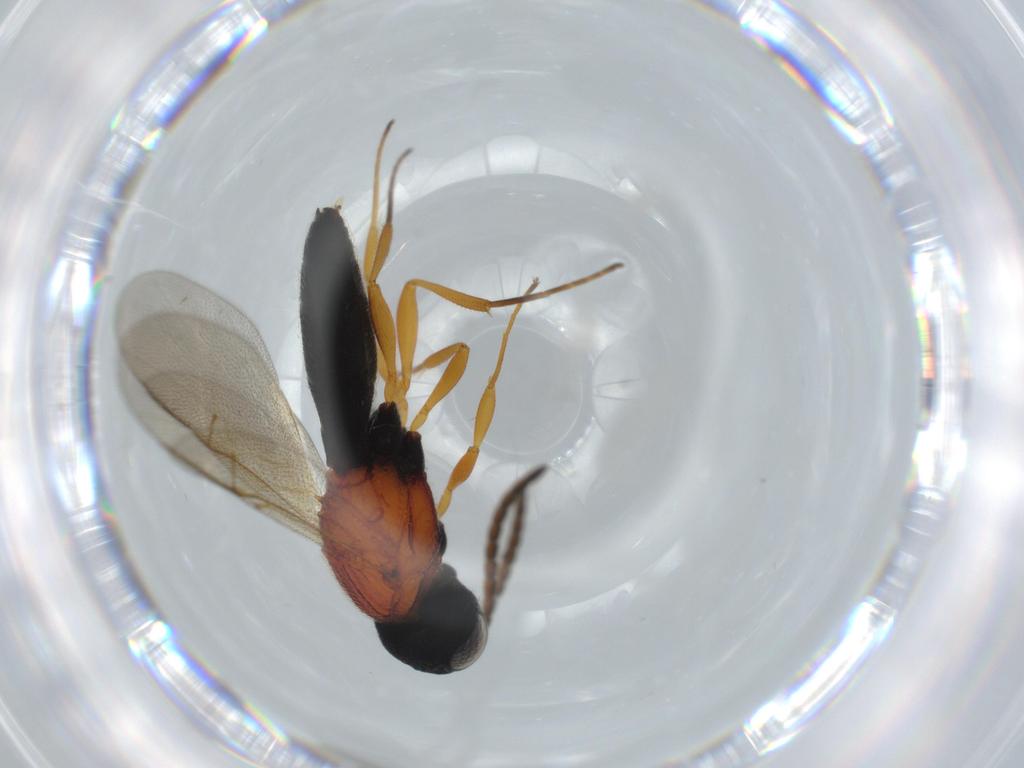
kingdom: Animalia
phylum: Arthropoda
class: Insecta
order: Hymenoptera
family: Scelionidae
